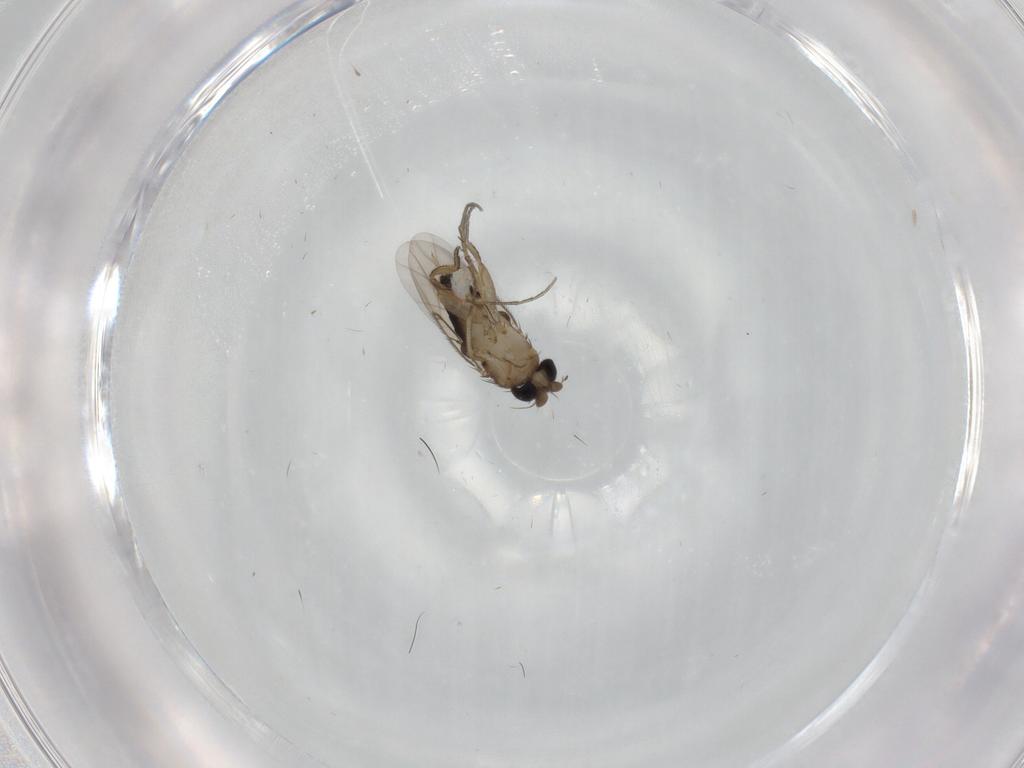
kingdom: Animalia
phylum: Arthropoda
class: Insecta
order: Diptera
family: Phoridae
